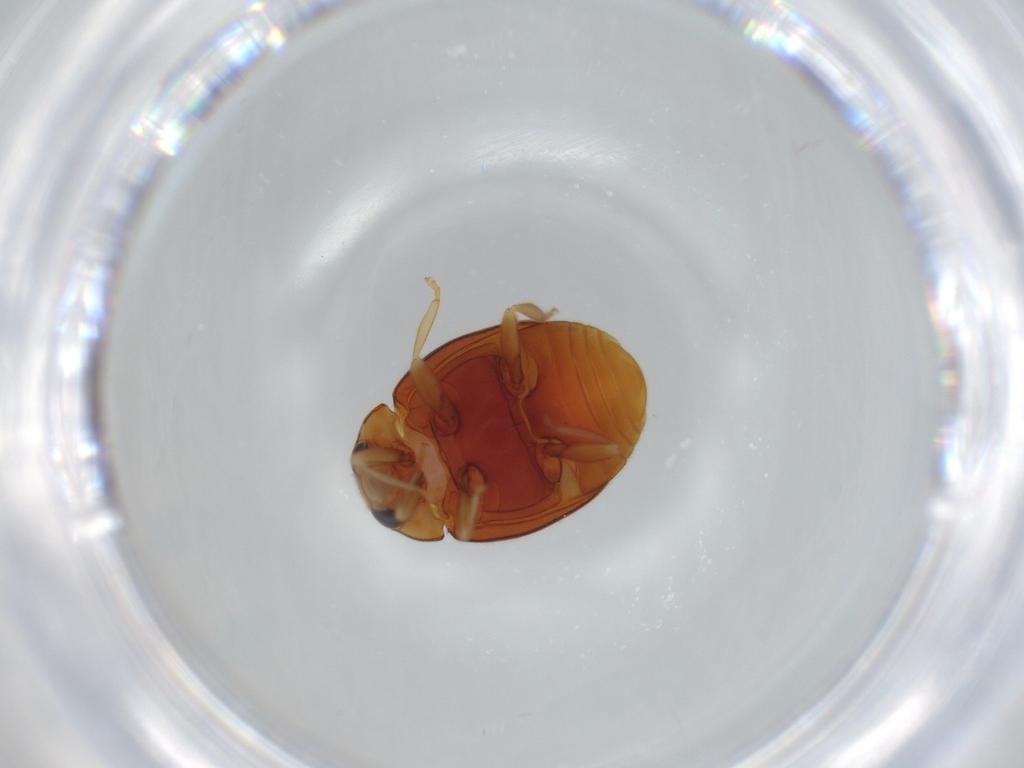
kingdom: Animalia
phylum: Arthropoda
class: Insecta
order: Coleoptera
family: Coccinellidae
